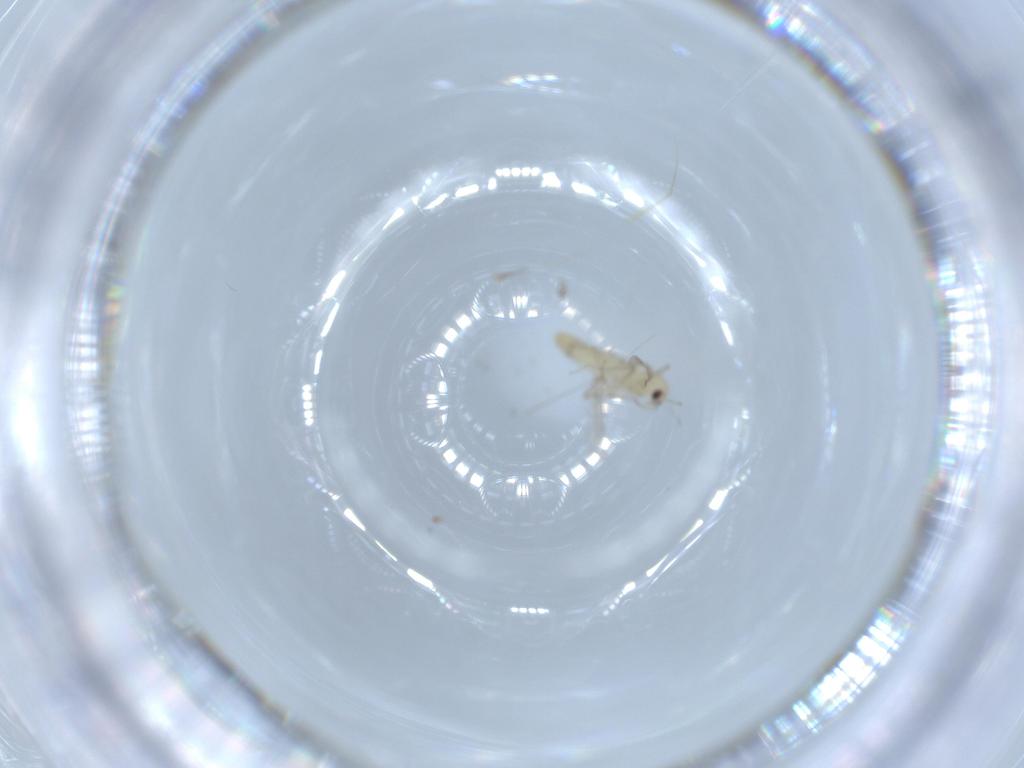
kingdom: Animalia
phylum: Arthropoda
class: Insecta
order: Diptera
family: Chironomidae
